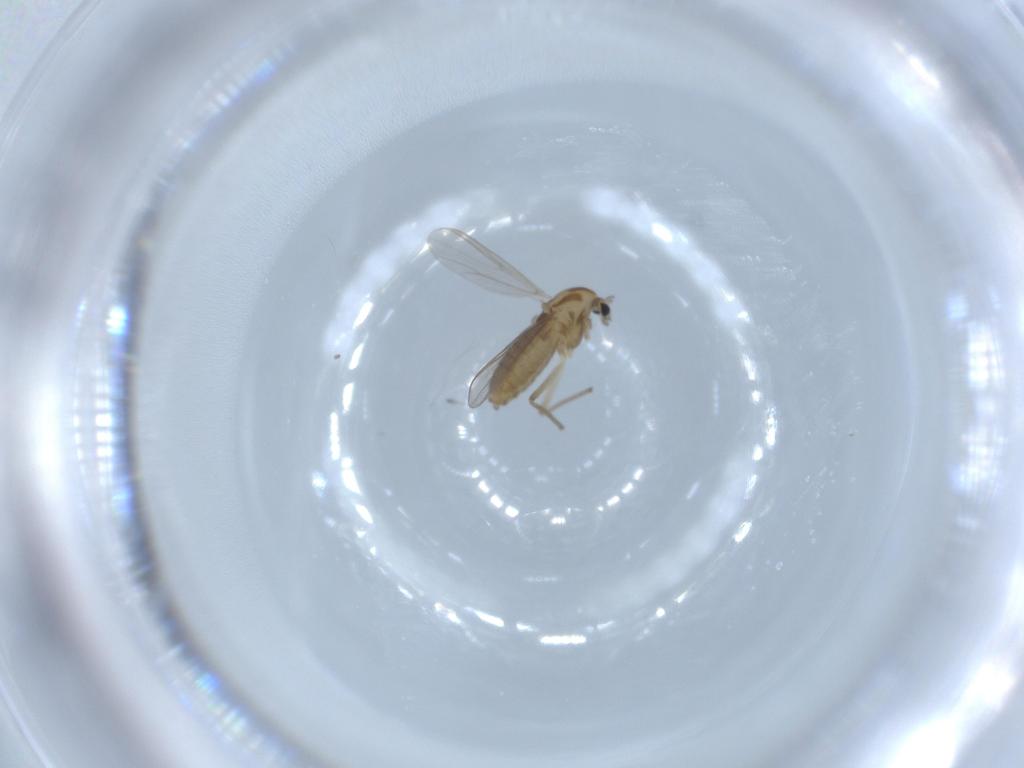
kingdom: Animalia
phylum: Arthropoda
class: Insecta
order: Diptera
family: Chironomidae
